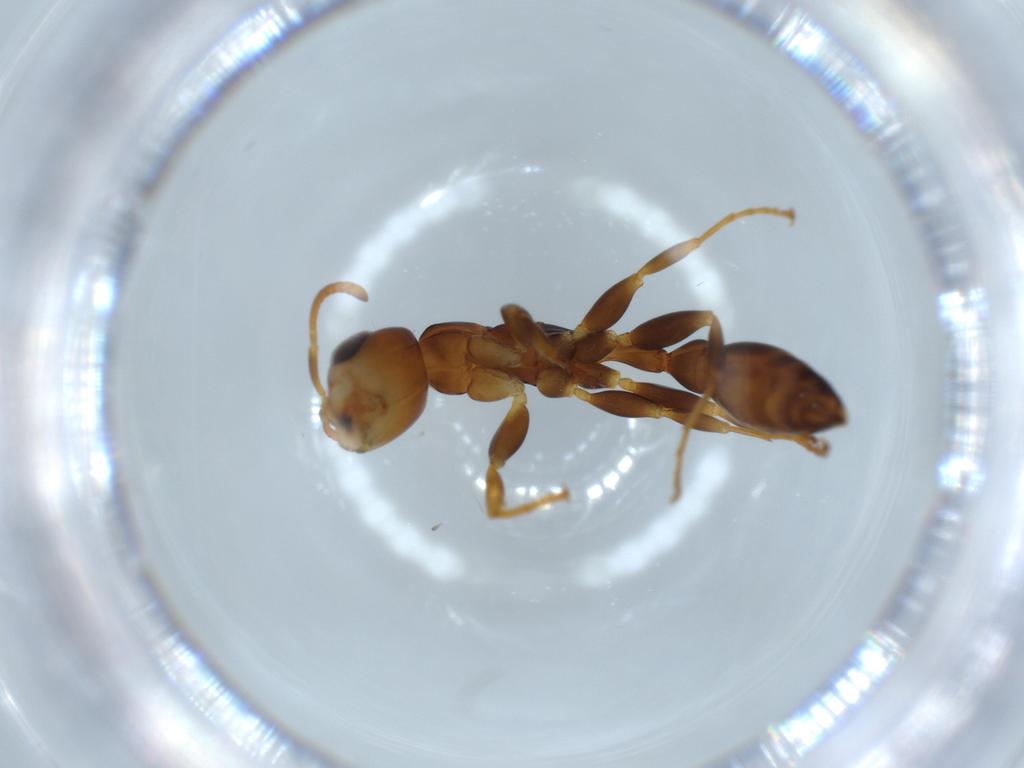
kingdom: Animalia
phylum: Arthropoda
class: Insecta
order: Hymenoptera
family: Formicidae
